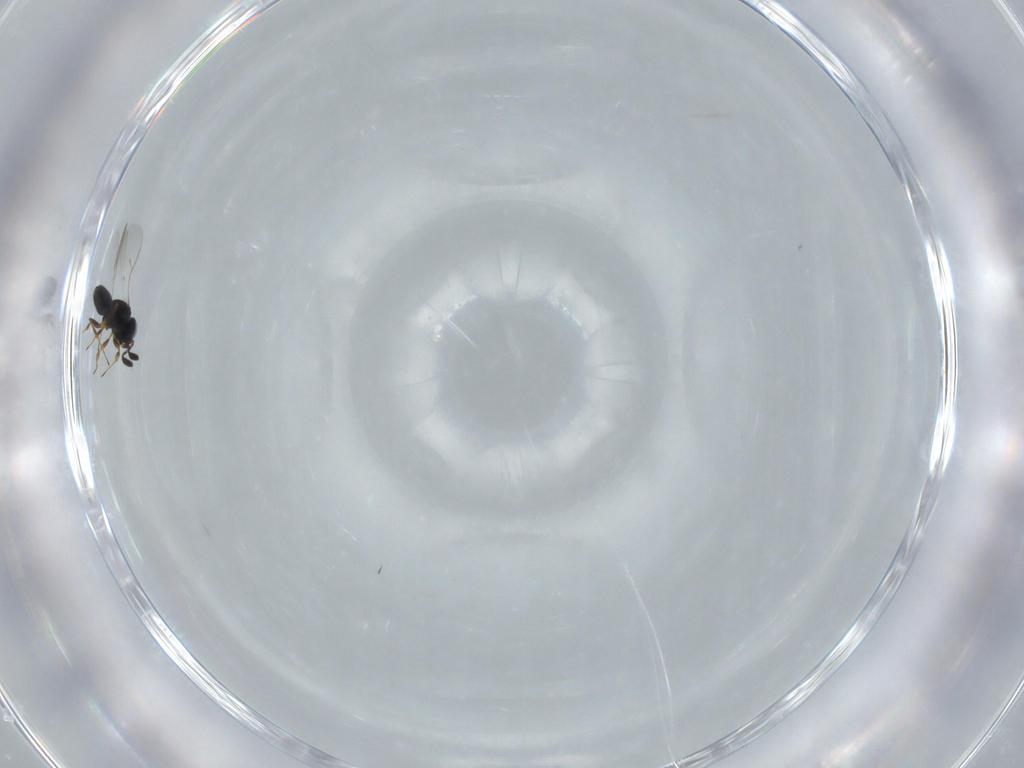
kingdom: Animalia
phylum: Arthropoda
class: Insecta
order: Hymenoptera
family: Scelionidae
